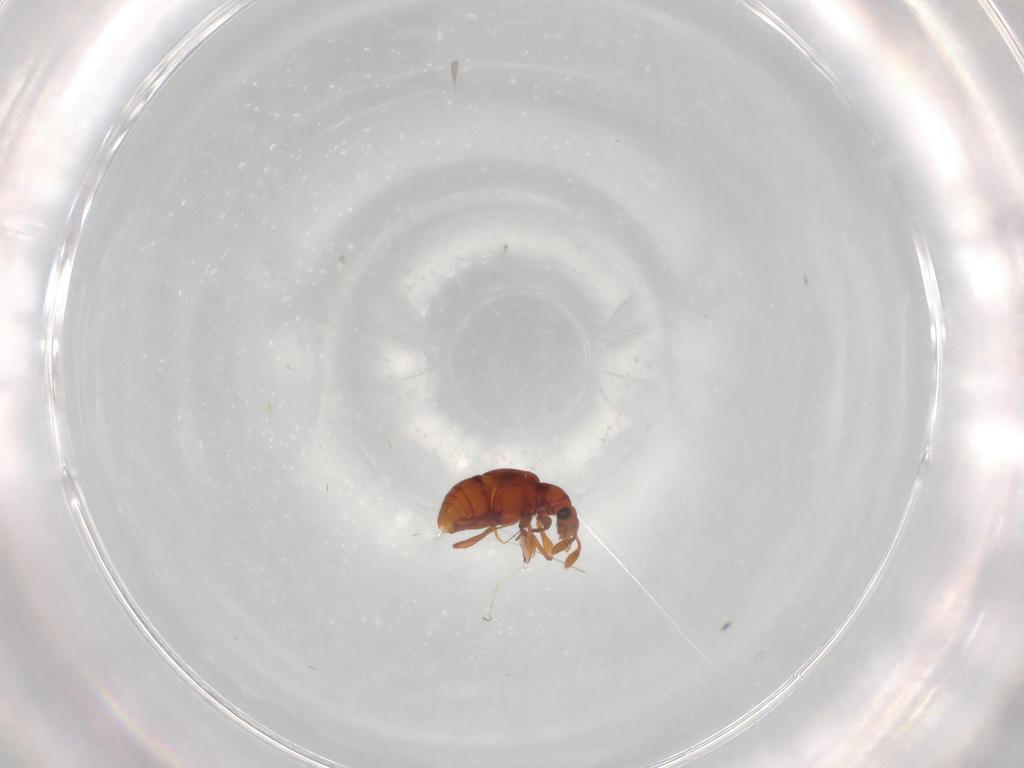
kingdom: Animalia
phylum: Arthropoda
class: Insecta
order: Coleoptera
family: Staphylinidae
